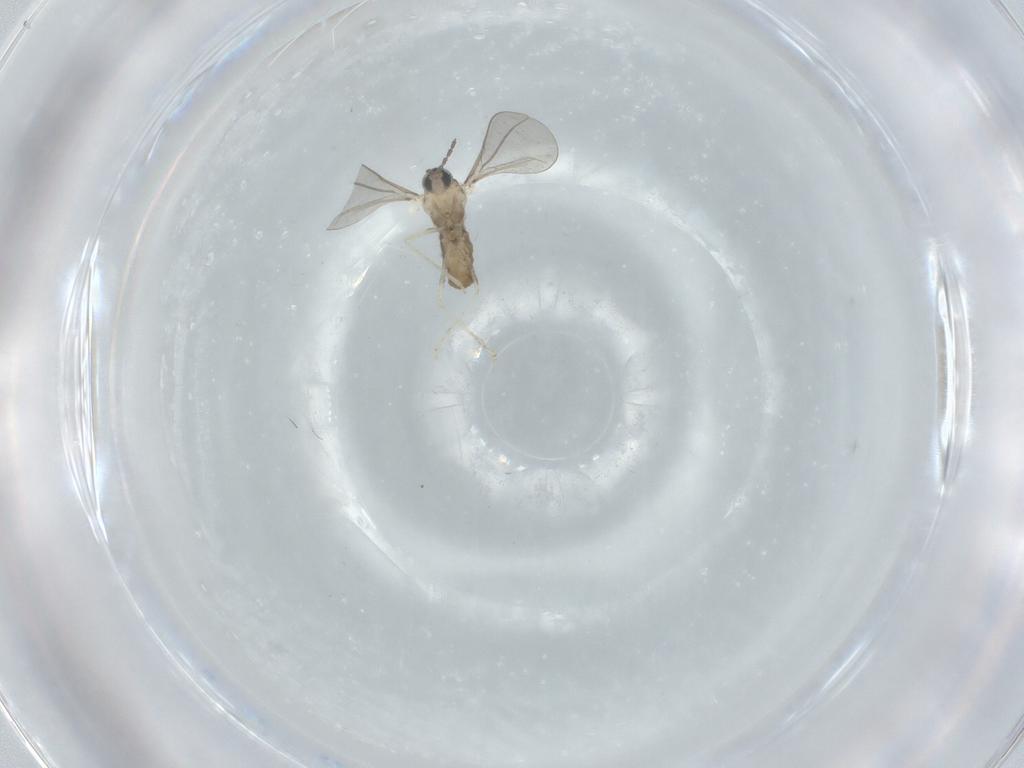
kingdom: Animalia
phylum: Arthropoda
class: Insecta
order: Diptera
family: Cecidomyiidae
